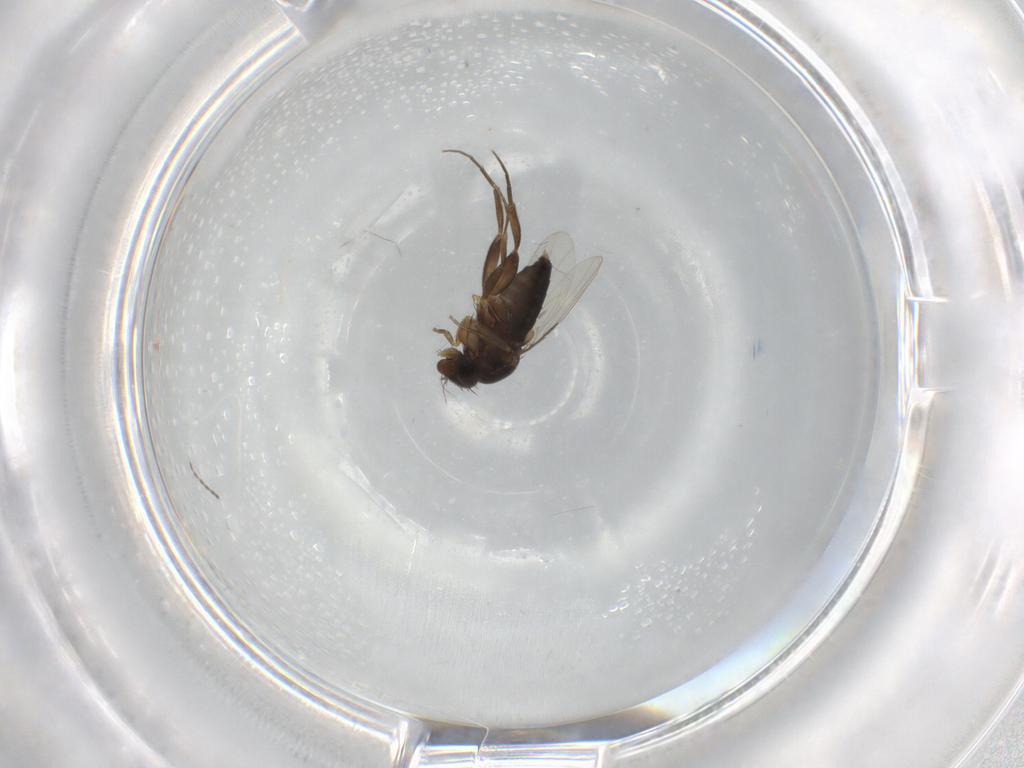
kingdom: Animalia
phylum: Arthropoda
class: Insecta
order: Diptera
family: Phoridae
